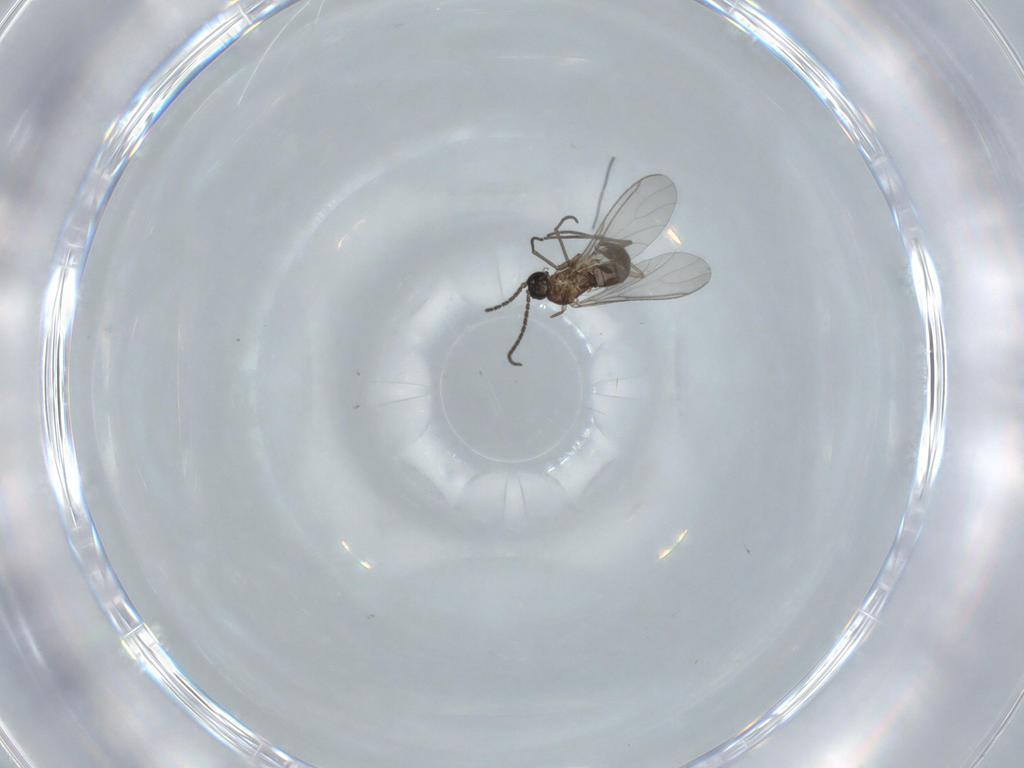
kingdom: Animalia
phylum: Arthropoda
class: Insecta
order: Diptera
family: Sciaridae
